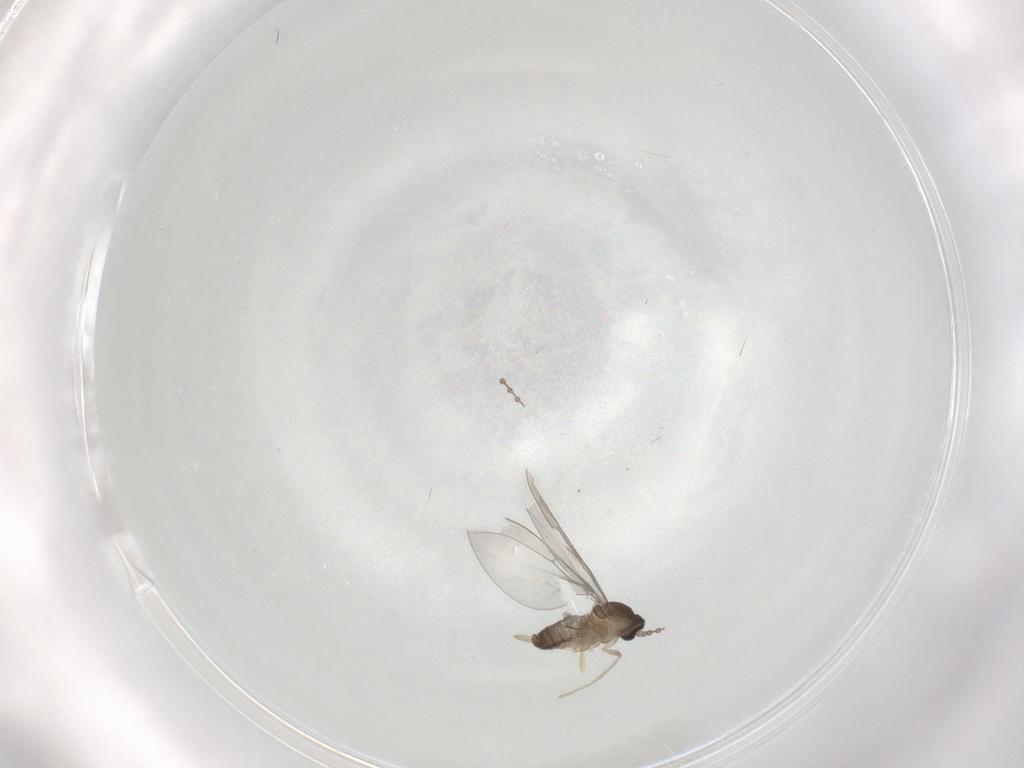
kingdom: Animalia
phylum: Arthropoda
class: Insecta
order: Diptera
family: Cecidomyiidae
